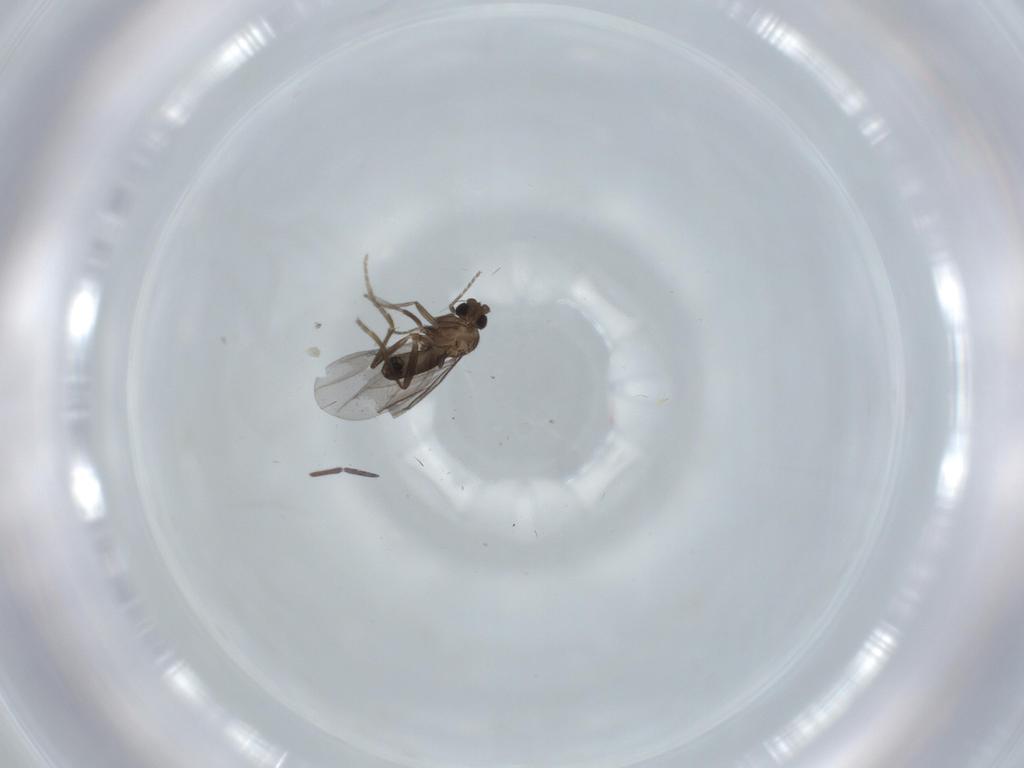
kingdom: Animalia
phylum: Arthropoda
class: Insecta
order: Diptera
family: Phoridae
